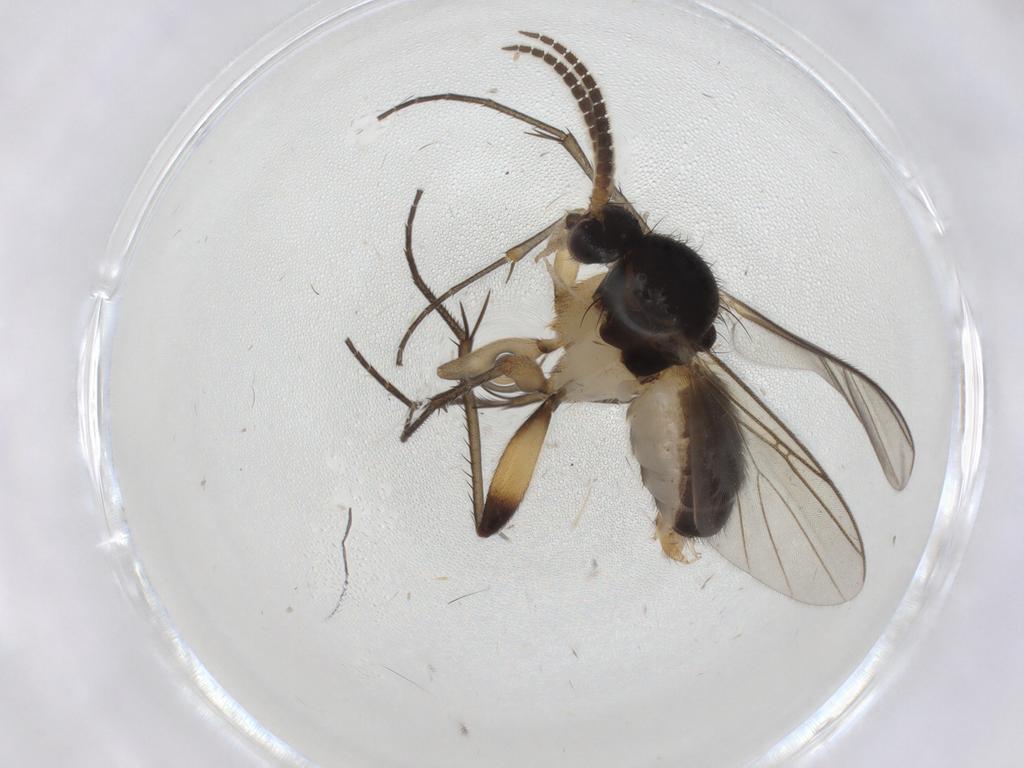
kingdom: Animalia
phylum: Arthropoda
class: Insecta
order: Diptera
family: Mycetophilidae
